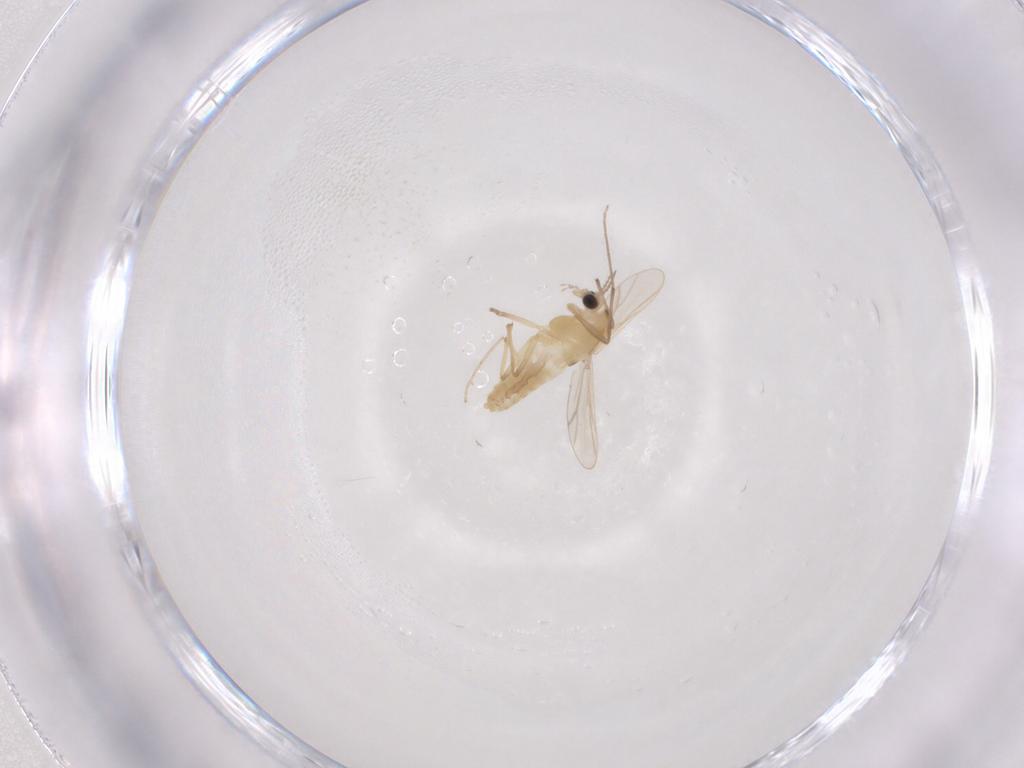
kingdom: Animalia
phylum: Arthropoda
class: Insecta
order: Diptera
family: Chironomidae
